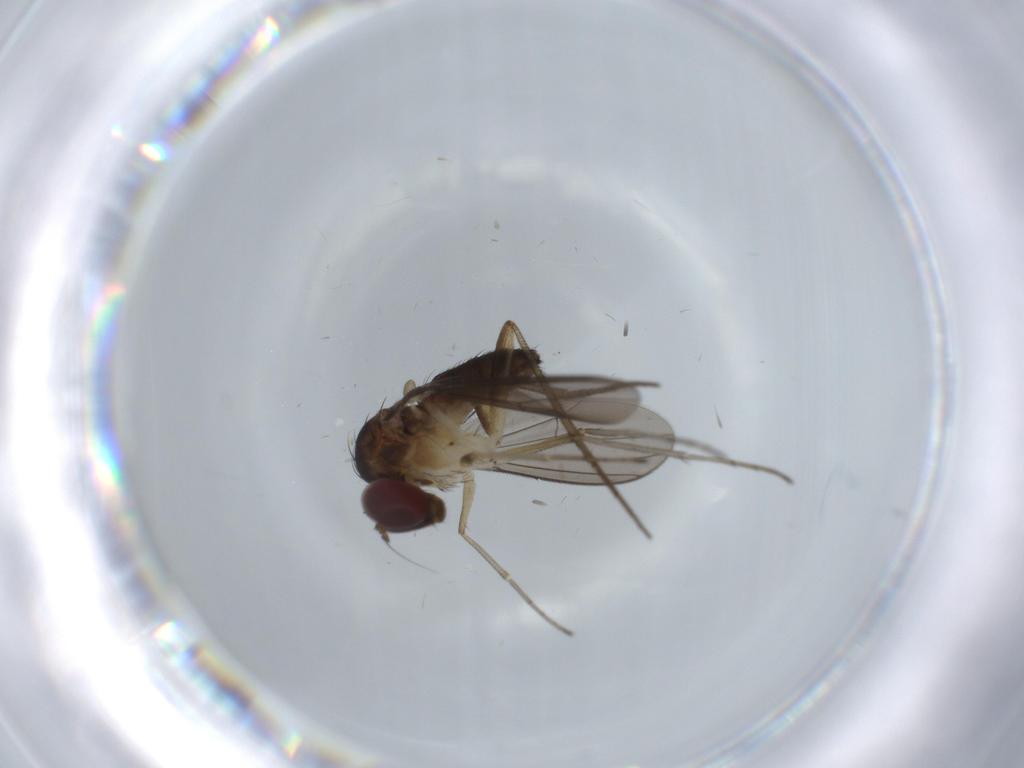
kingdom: Animalia
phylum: Arthropoda
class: Insecta
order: Diptera
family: Chironomidae
